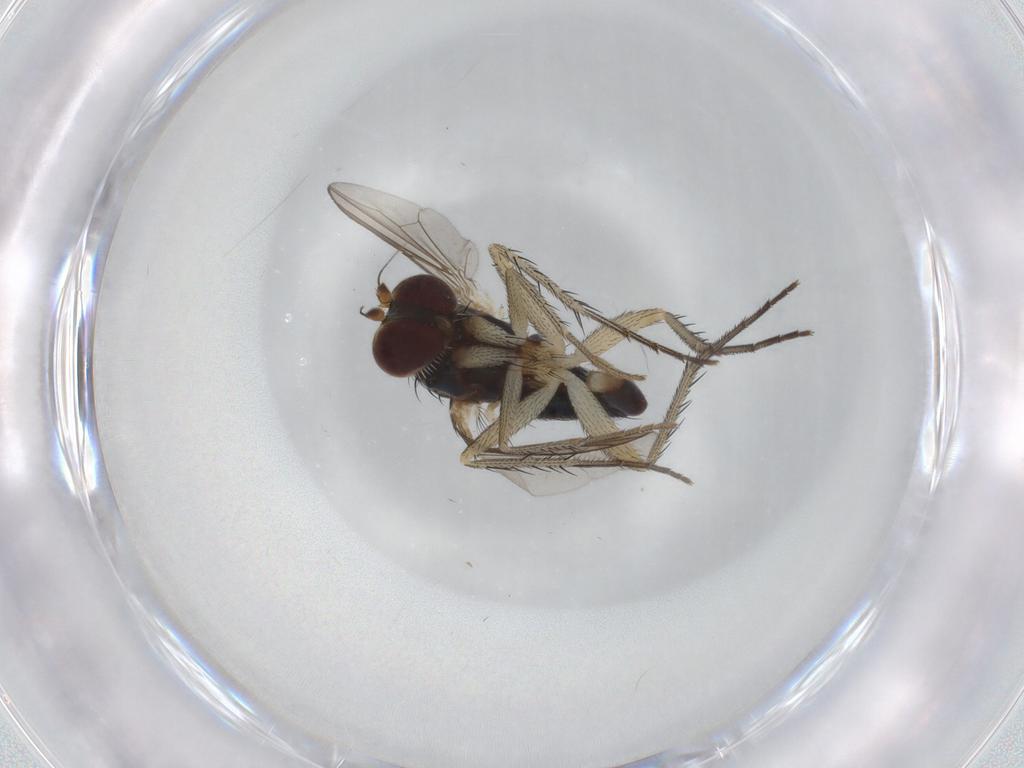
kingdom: Animalia
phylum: Arthropoda
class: Insecta
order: Diptera
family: Dolichopodidae
